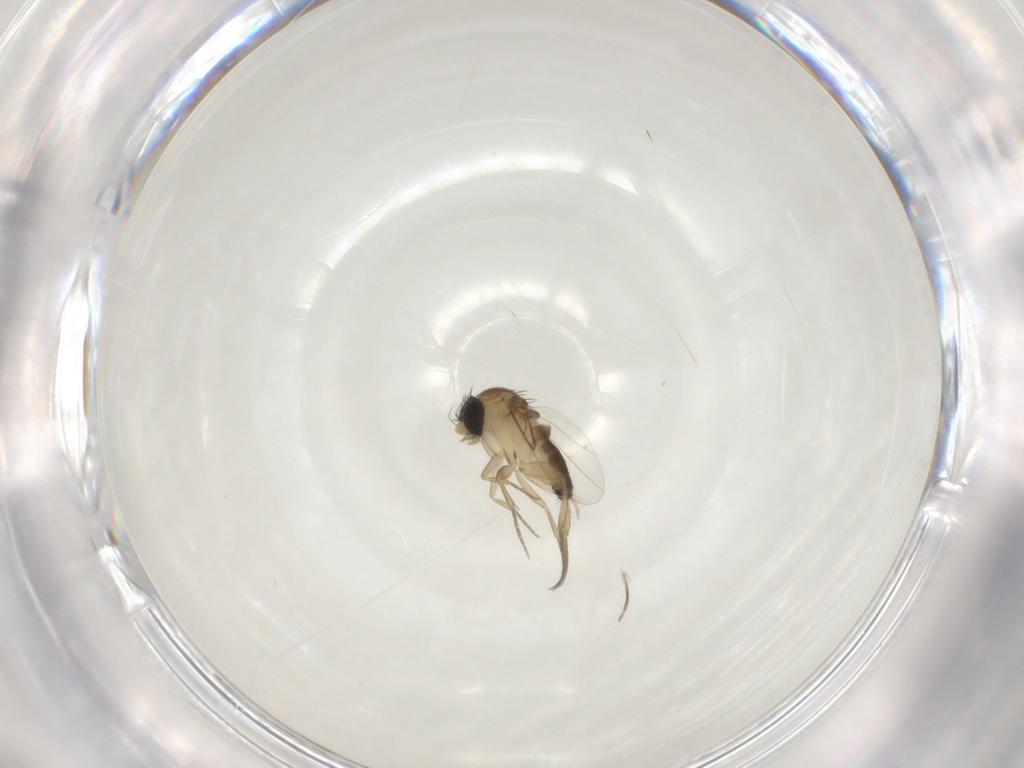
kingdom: Animalia
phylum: Arthropoda
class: Insecta
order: Diptera
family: Phoridae
